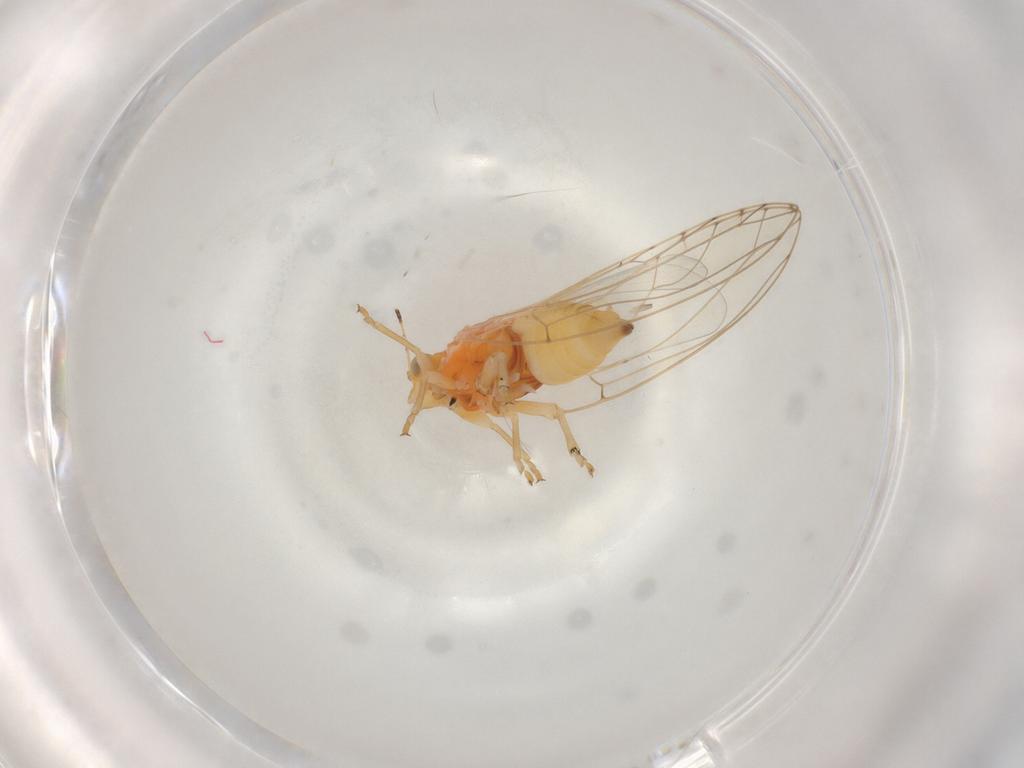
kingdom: Animalia
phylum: Arthropoda
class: Insecta
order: Hemiptera
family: Triozidae
